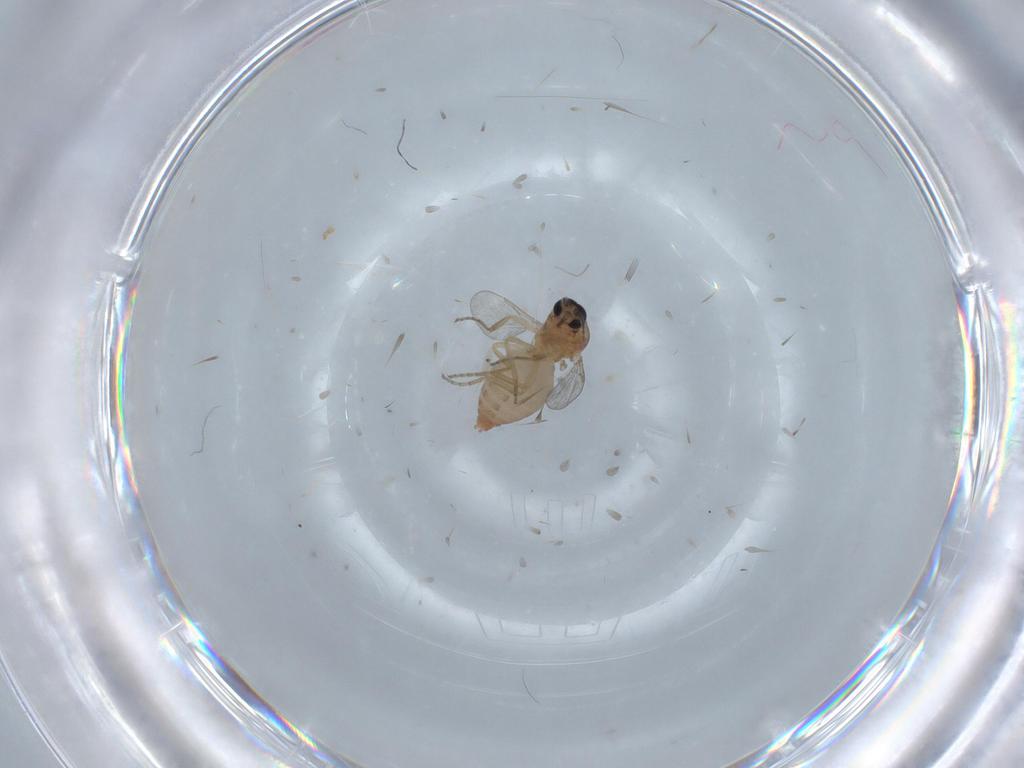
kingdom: Animalia
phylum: Arthropoda
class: Insecta
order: Diptera
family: Ceratopogonidae
